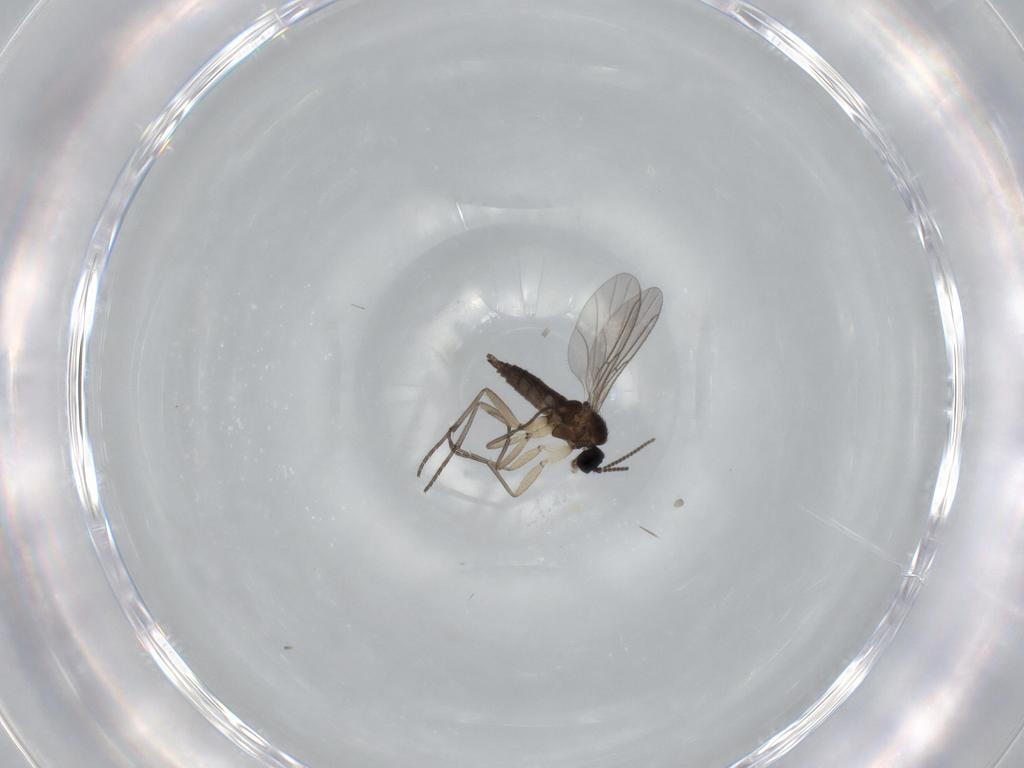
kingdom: Animalia
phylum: Arthropoda
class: Insecta
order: Diptera
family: Sciaridae
